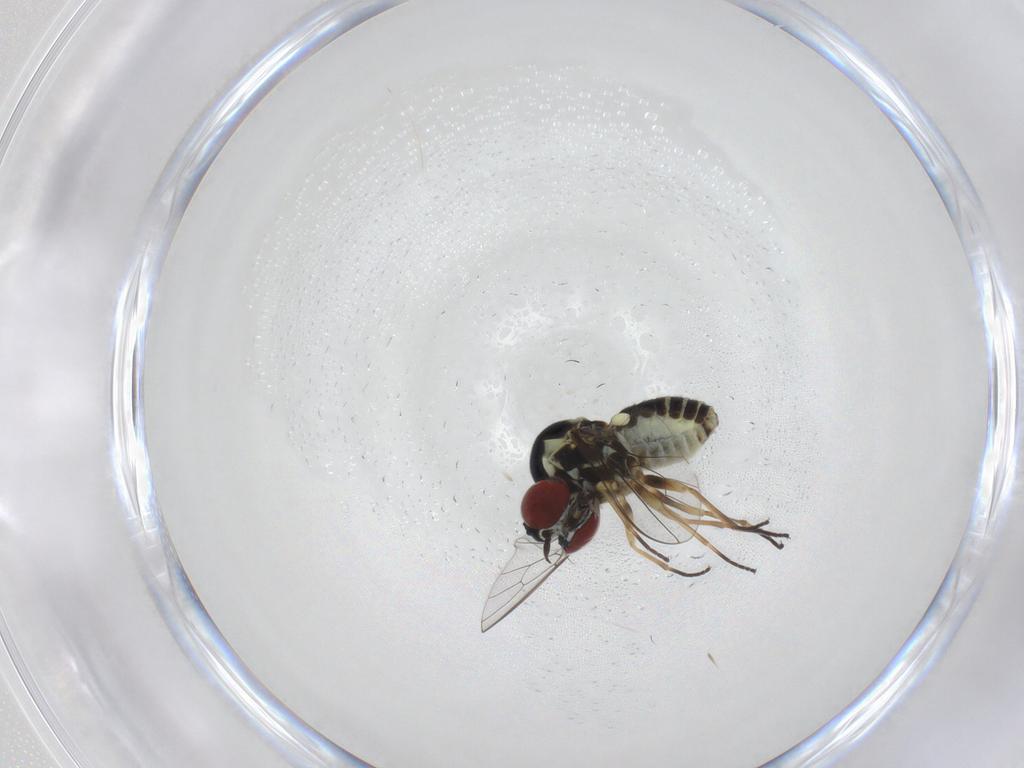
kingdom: Animalia
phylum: Arthropoda
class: Insecta
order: Diptera
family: Bombyliidae
